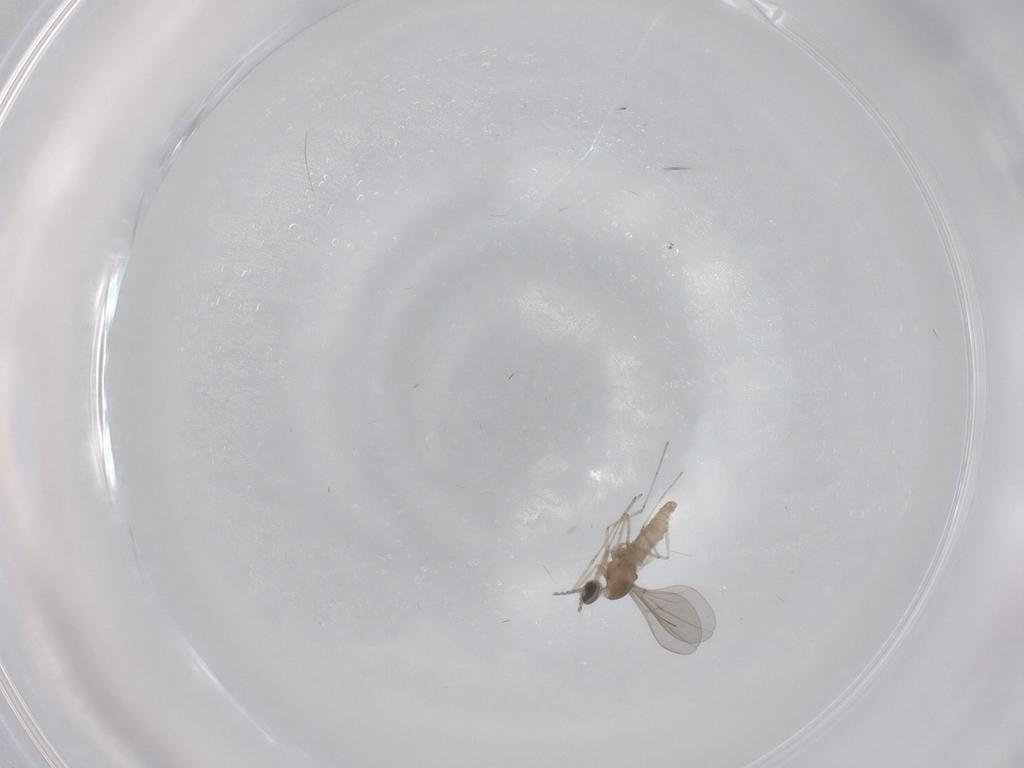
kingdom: Animalia
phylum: Arthropoda
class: Insecta
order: Diptera
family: Cecidomyiidae
